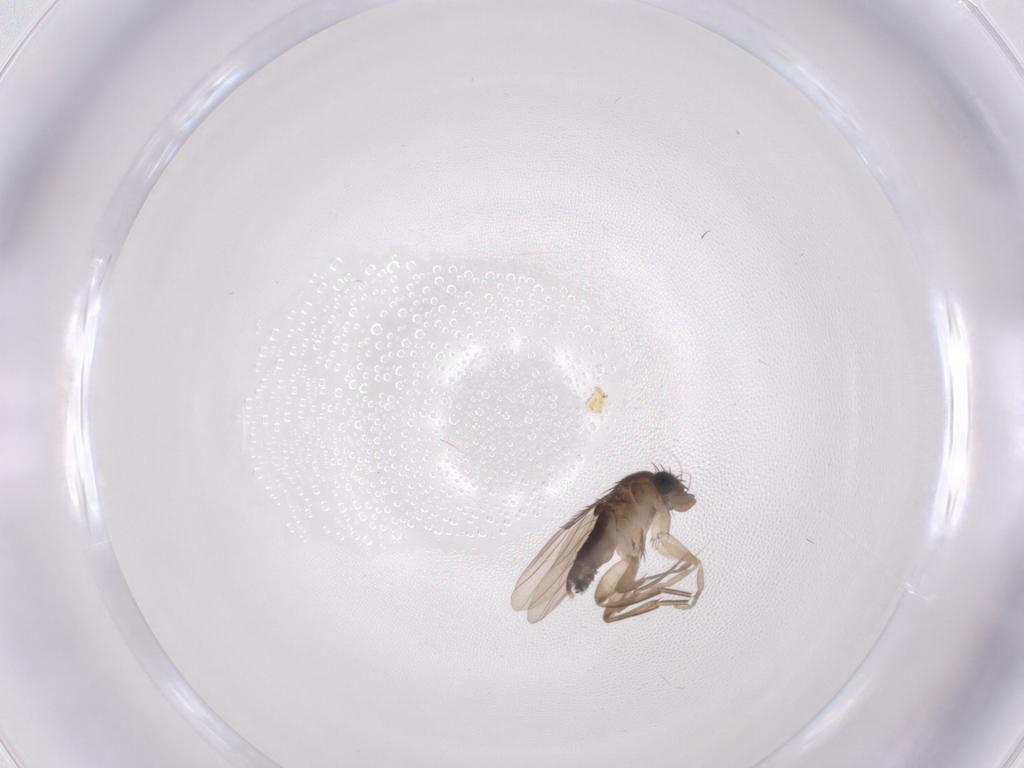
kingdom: Animalia
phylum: Arthropoda
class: Insecta
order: Diptera
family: Phoridae
